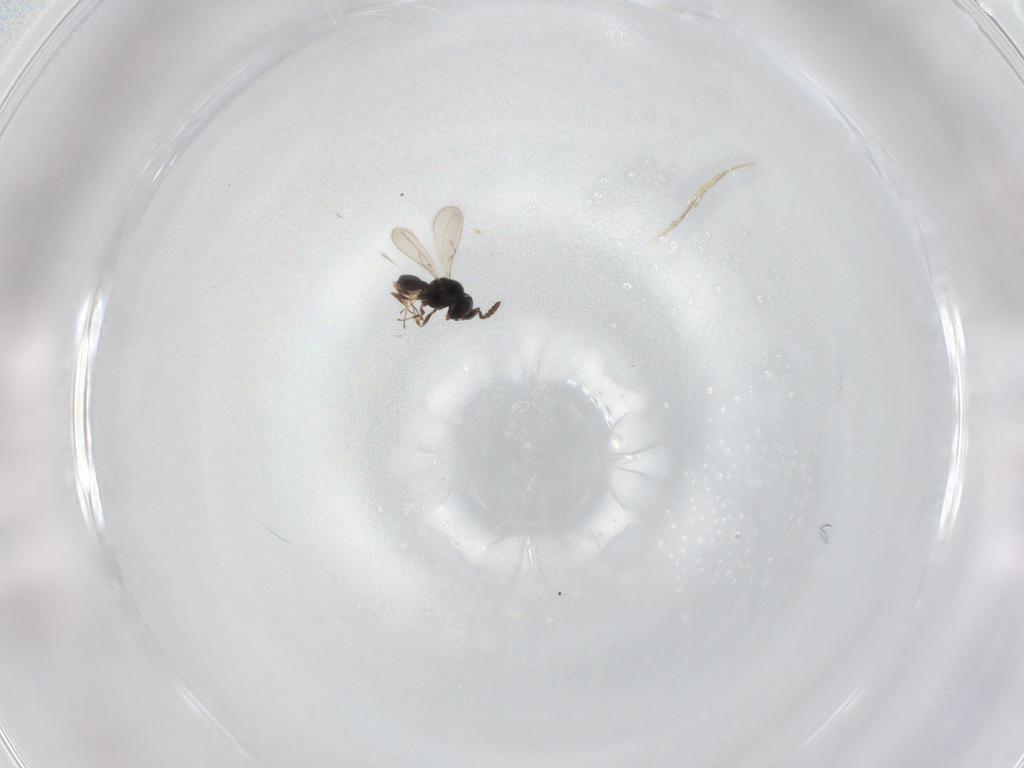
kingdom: Animalia
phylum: Arthropoda
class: Insecta
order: Hymenoptera
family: Scelionidae
